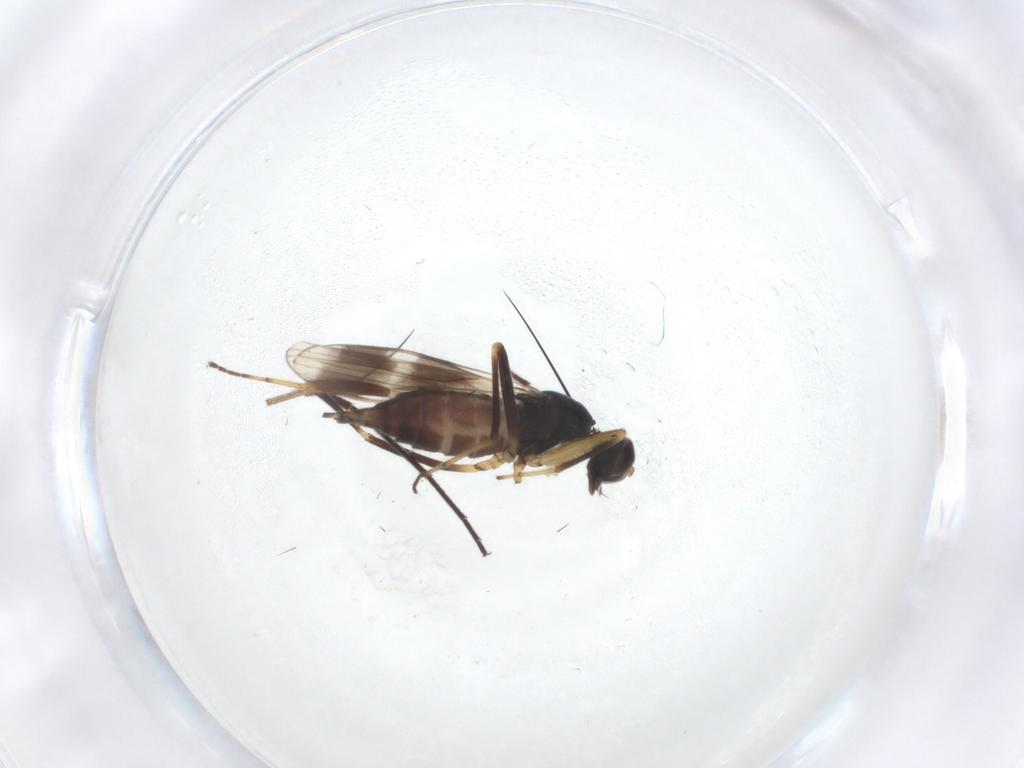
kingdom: Animalia
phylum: Arthropoda
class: Insecta
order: Diptera
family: Hybotidae
